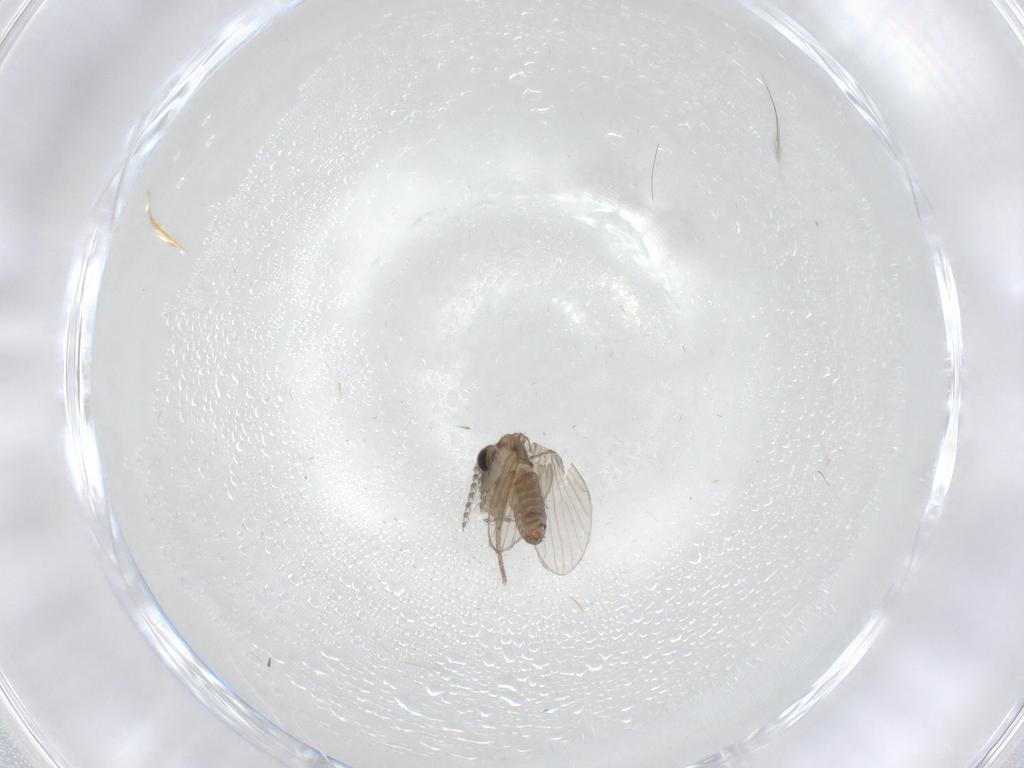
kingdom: Animalia
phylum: Arthropoda
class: Insecta
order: Diptera
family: Psychodidae
